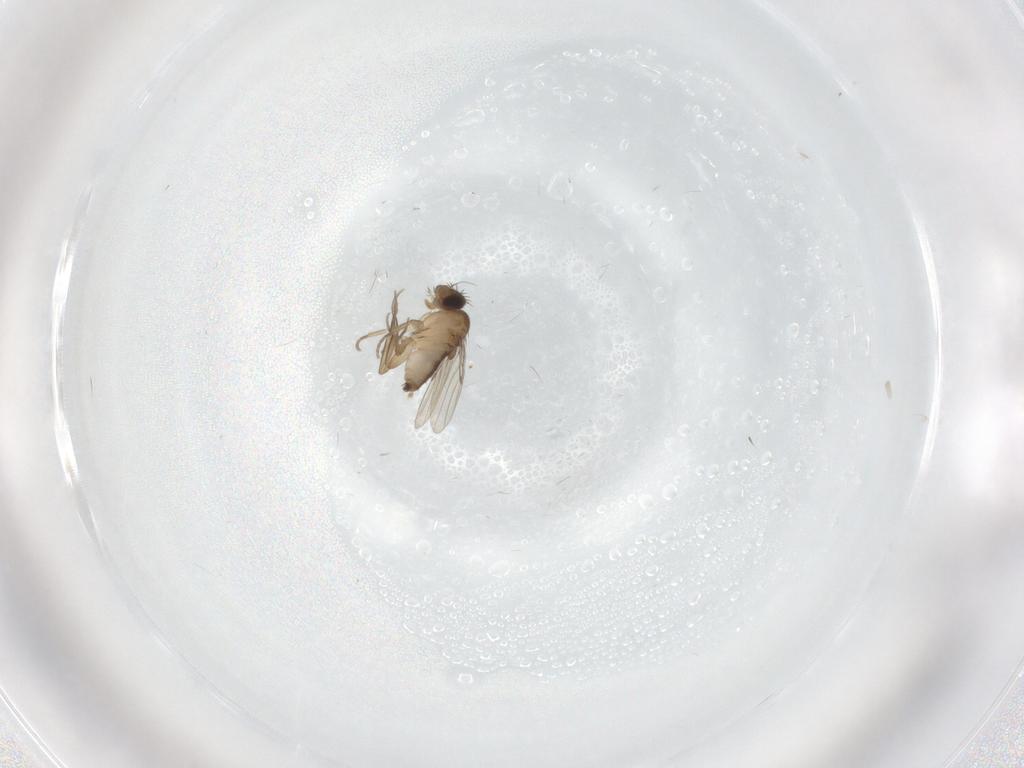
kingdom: Animalia
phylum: Arthropoda
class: Insecta
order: Diptera
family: Phoridae
